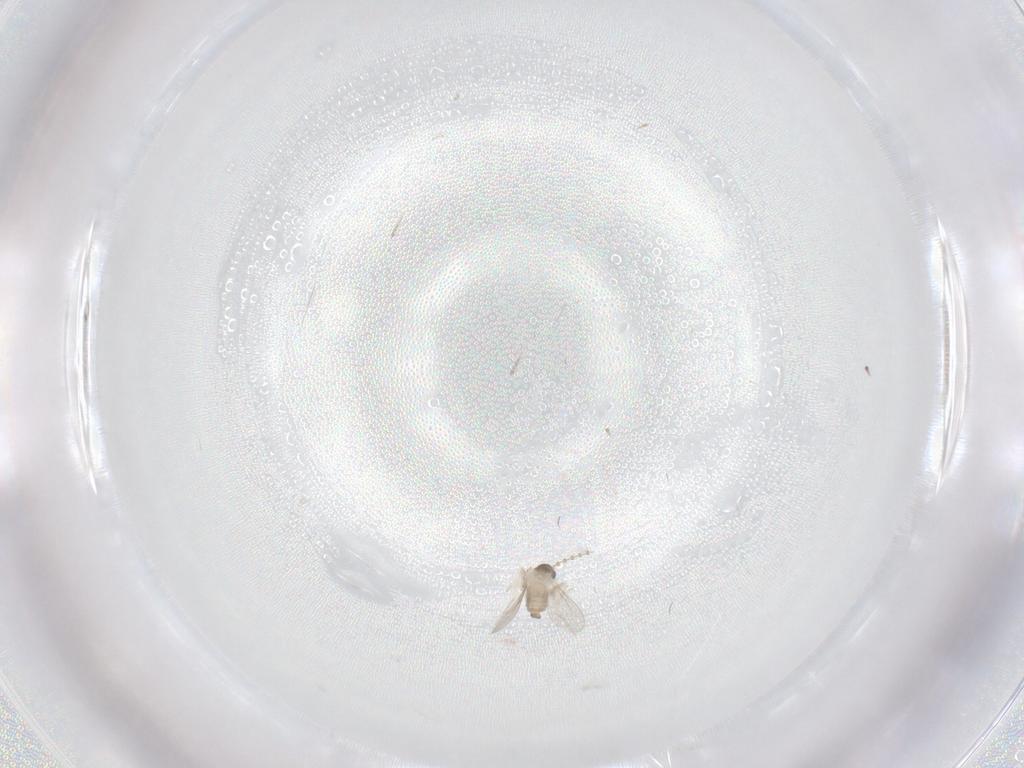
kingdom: Animalia
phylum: Arthropoda
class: Insecta
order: Diptera
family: Cecidomyiidae
